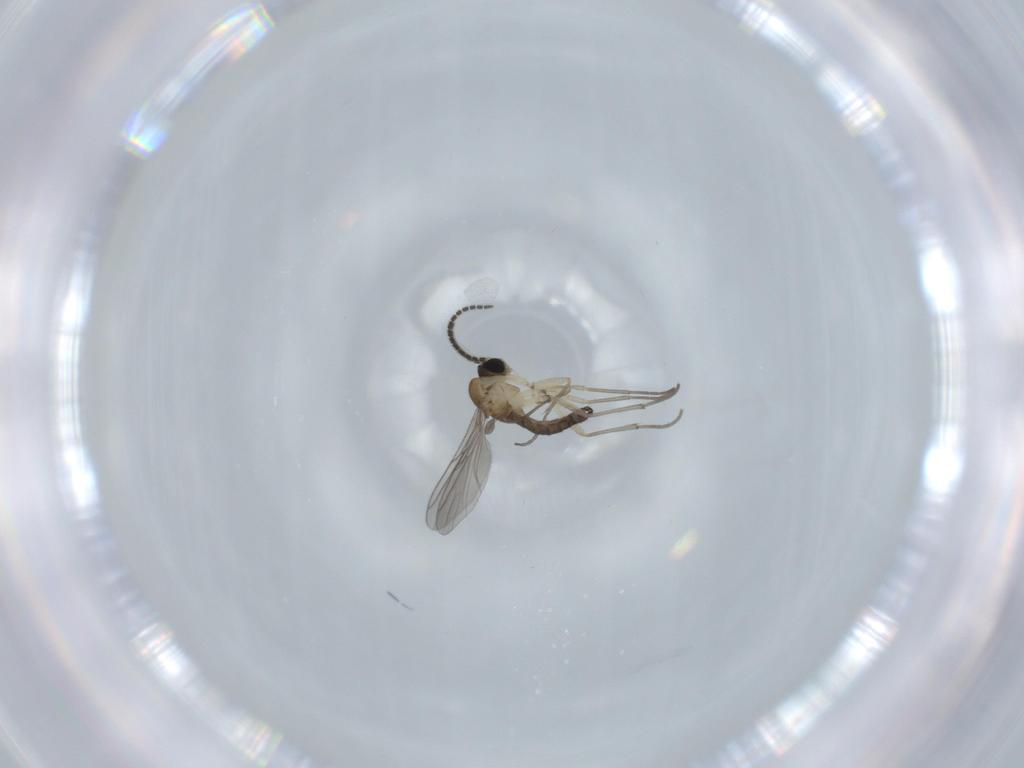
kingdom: Animalia
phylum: Arthropoda
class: Insecta
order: Diptera
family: Sciaridae
